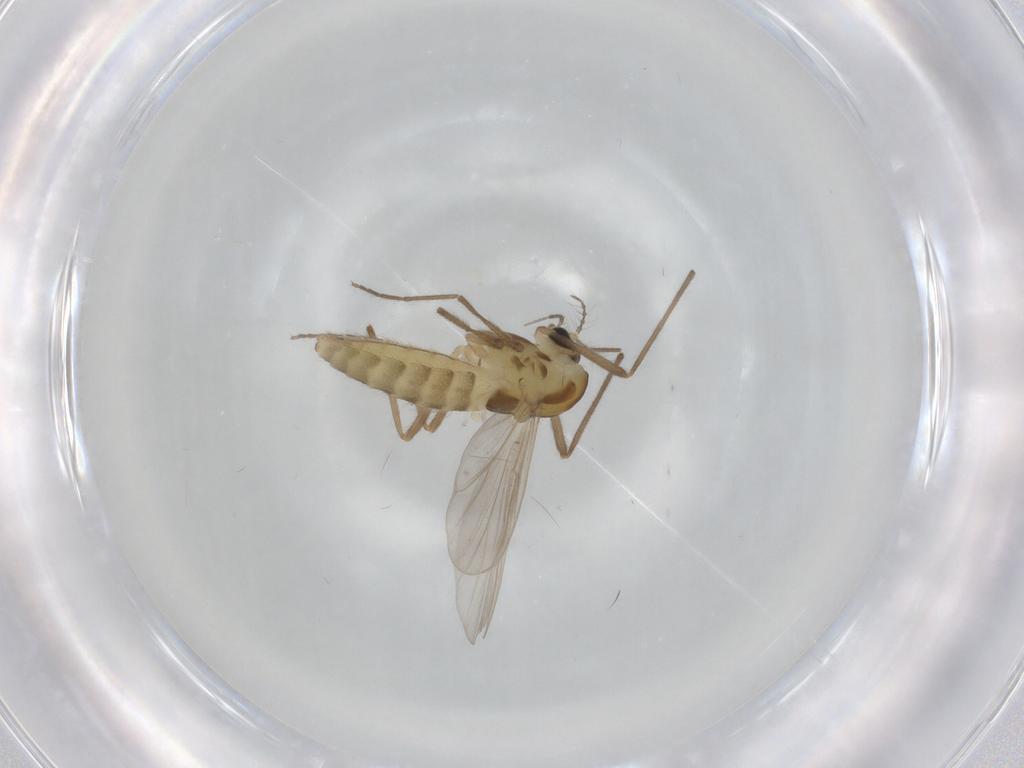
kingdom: Animalia
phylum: Arthropoda
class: Insecta
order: Diptera
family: Chironomidae
